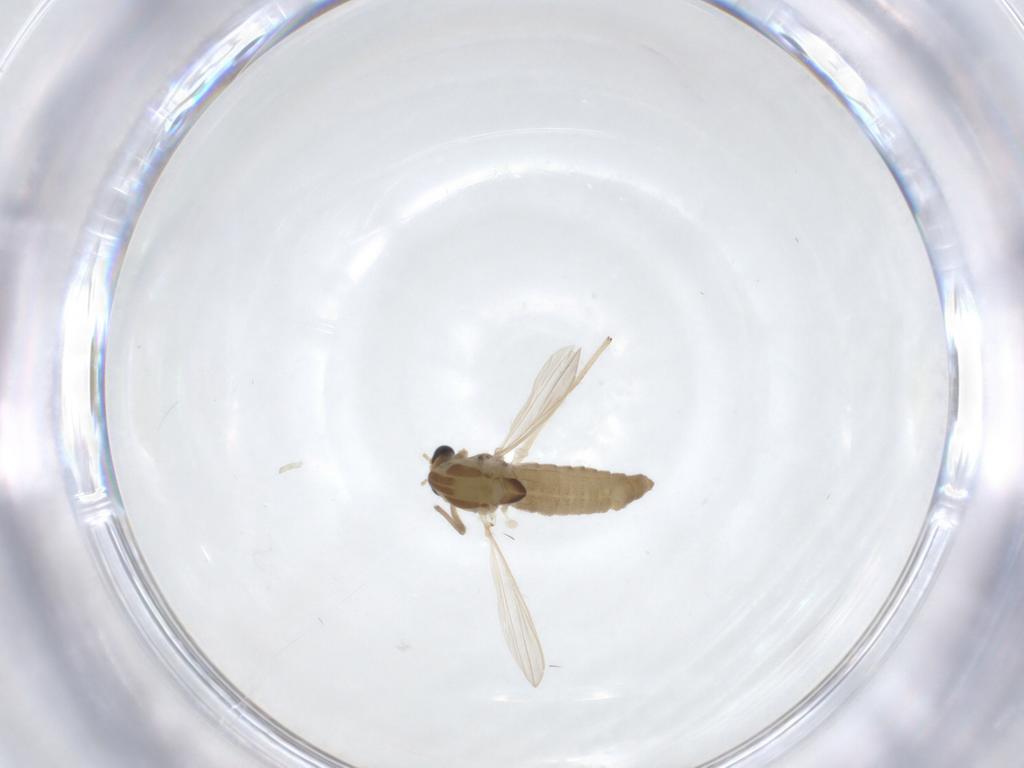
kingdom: Animalia
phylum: Arthropoda
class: Insecta
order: Diptera
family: Chironomidae
